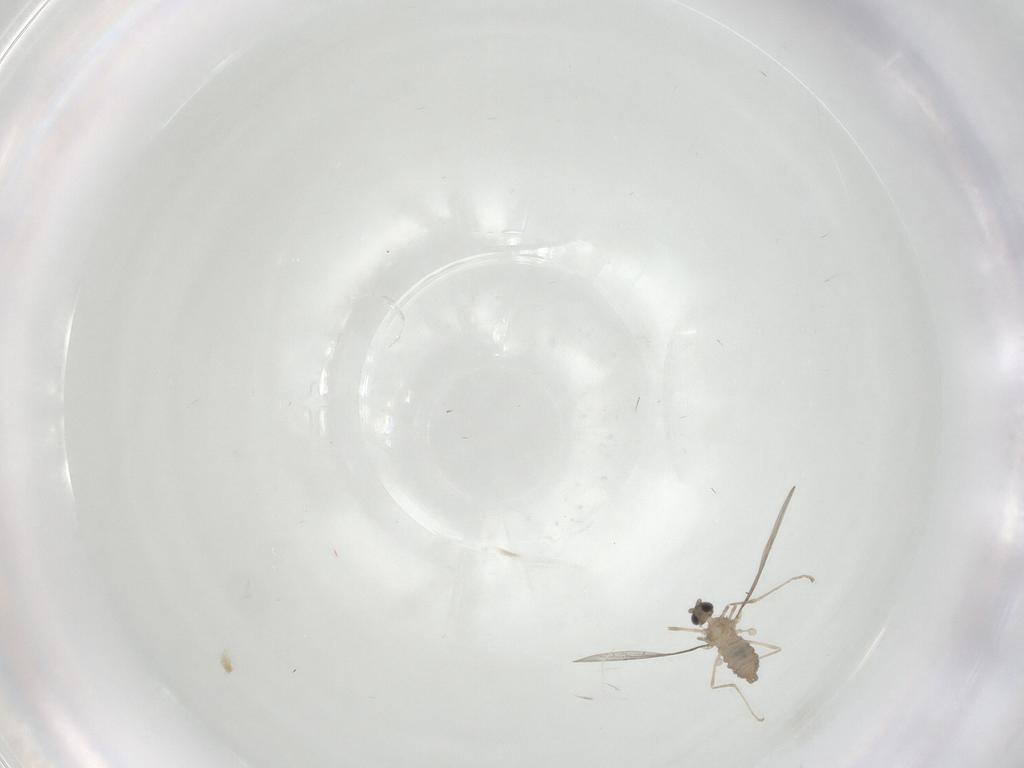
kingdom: Animalia
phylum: Arthropoda
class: Insecta
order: Diptera
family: Cecidomyiidae
